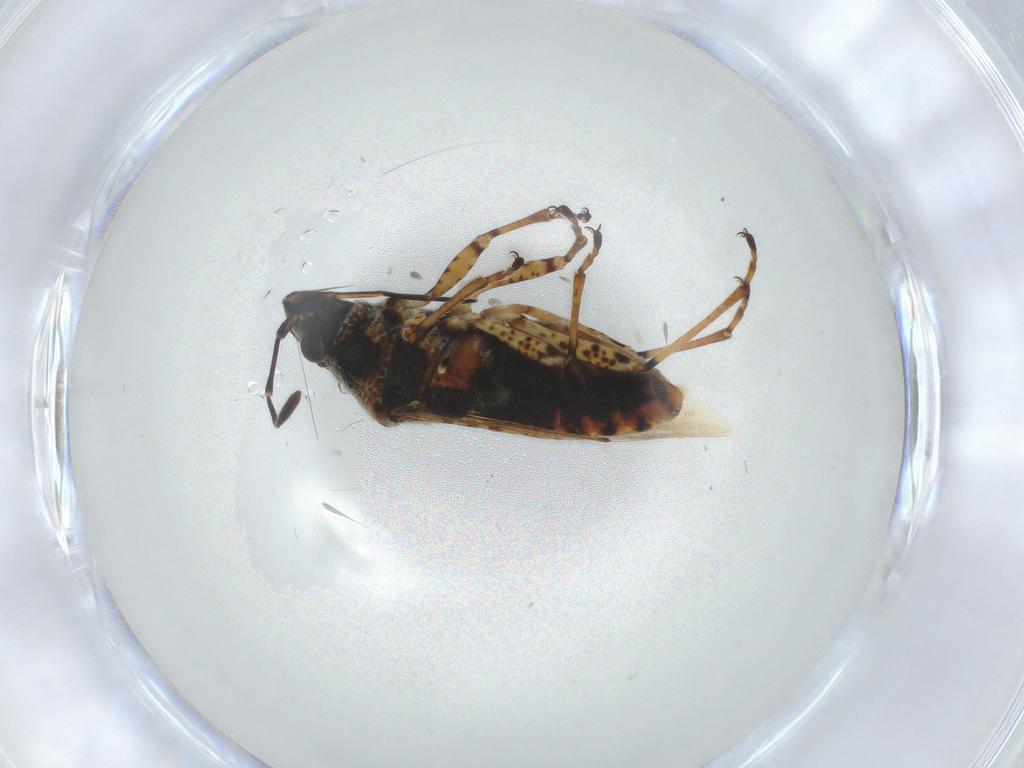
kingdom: Animalia
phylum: Arthropoda
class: Insecta
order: Hemiptera
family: Lygaeidae
